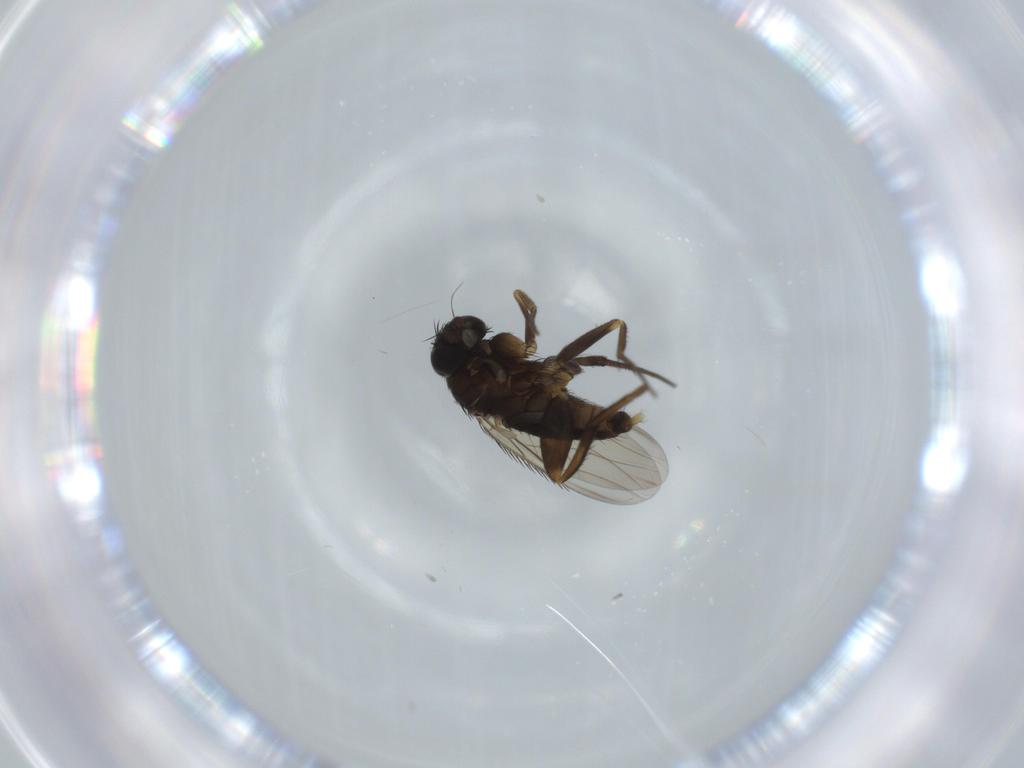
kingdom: Animalia
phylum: Arthropoda
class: Insecta
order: Diptera
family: Phoridae
